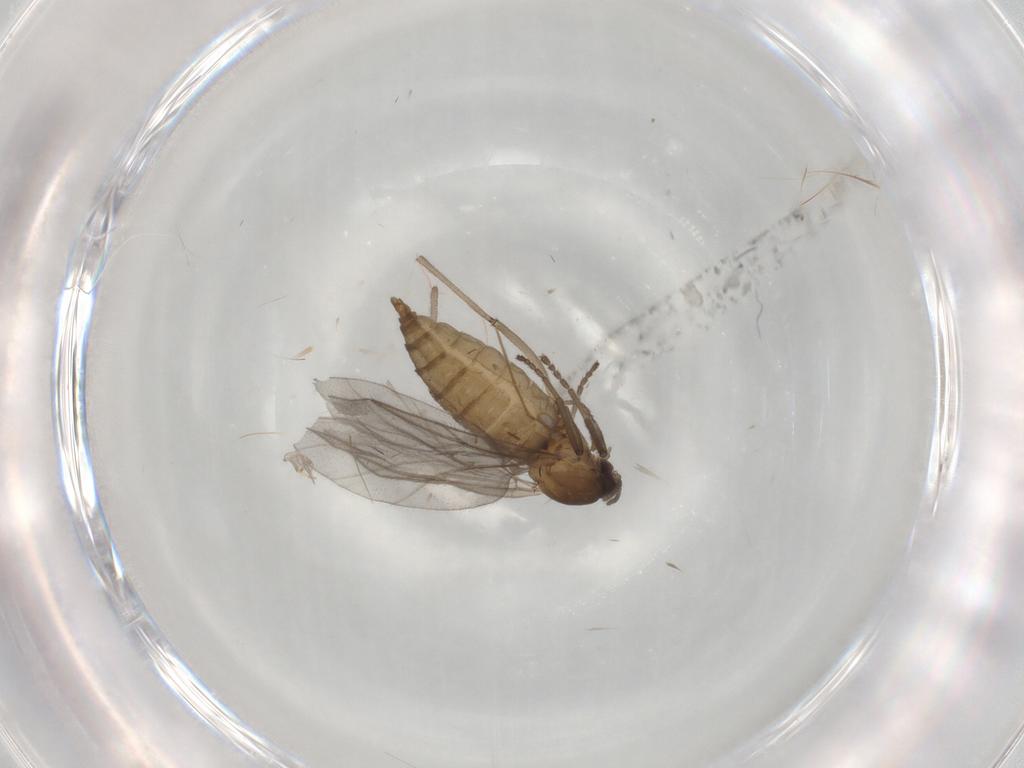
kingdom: Animalia
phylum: Arthropoda
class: Insecta
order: Diptera
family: Cecidomyiidae
